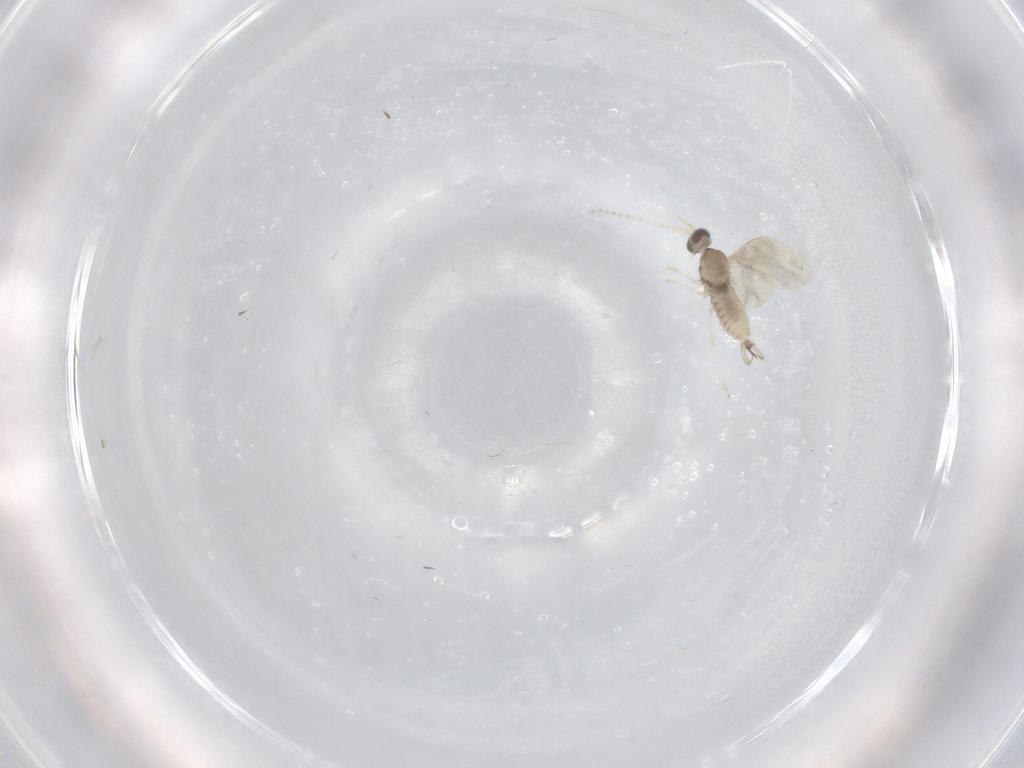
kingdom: Animalia
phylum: Arthropoda
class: Insecta
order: Diptera
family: Cecidomyiidae
